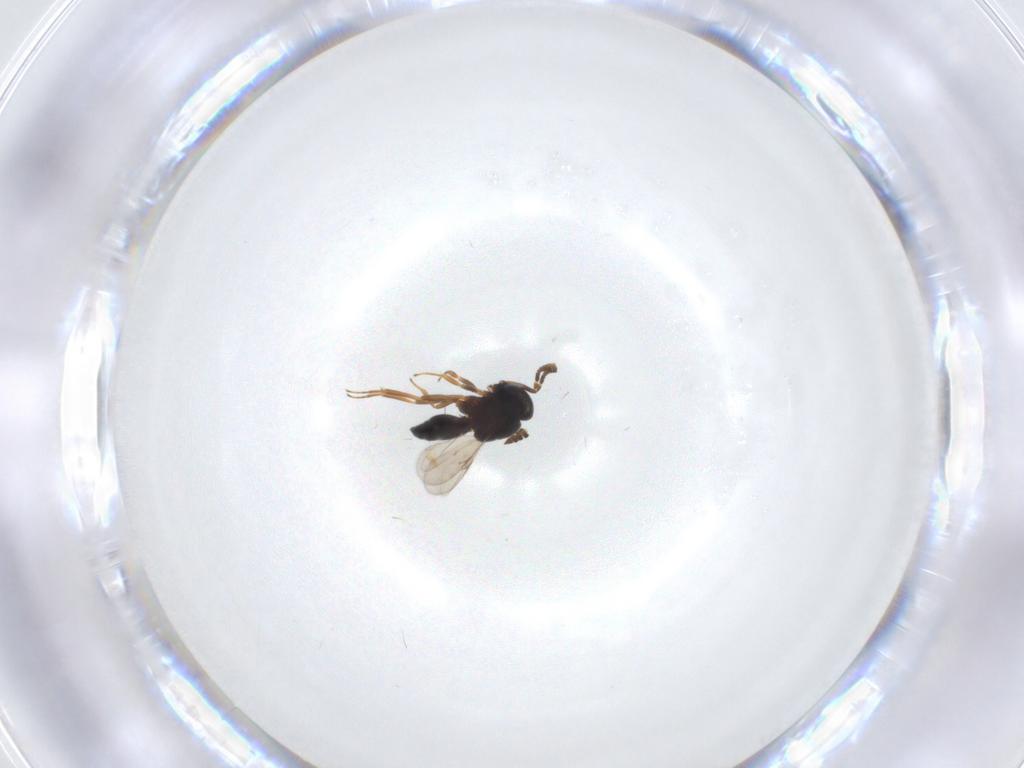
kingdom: Animalia
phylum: Arthropoda
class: Insecta
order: Hymenoptera
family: Scelionidae
